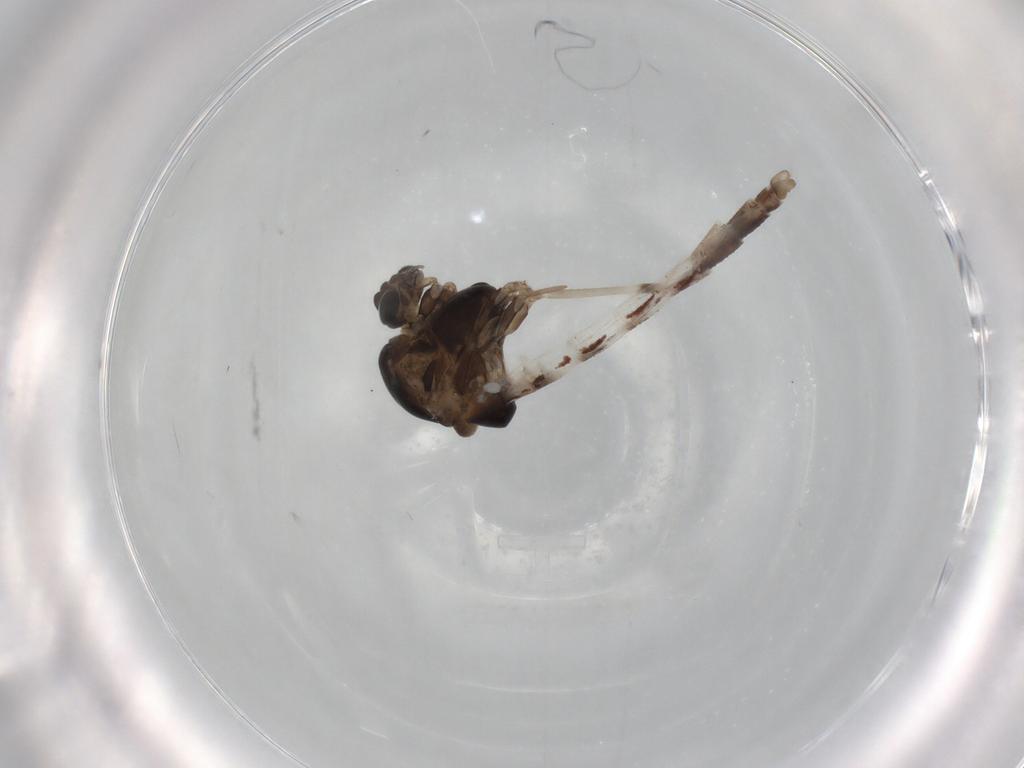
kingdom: Animalia
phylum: Arthropoda
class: Insecta
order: Diptera
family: Chironomidae
